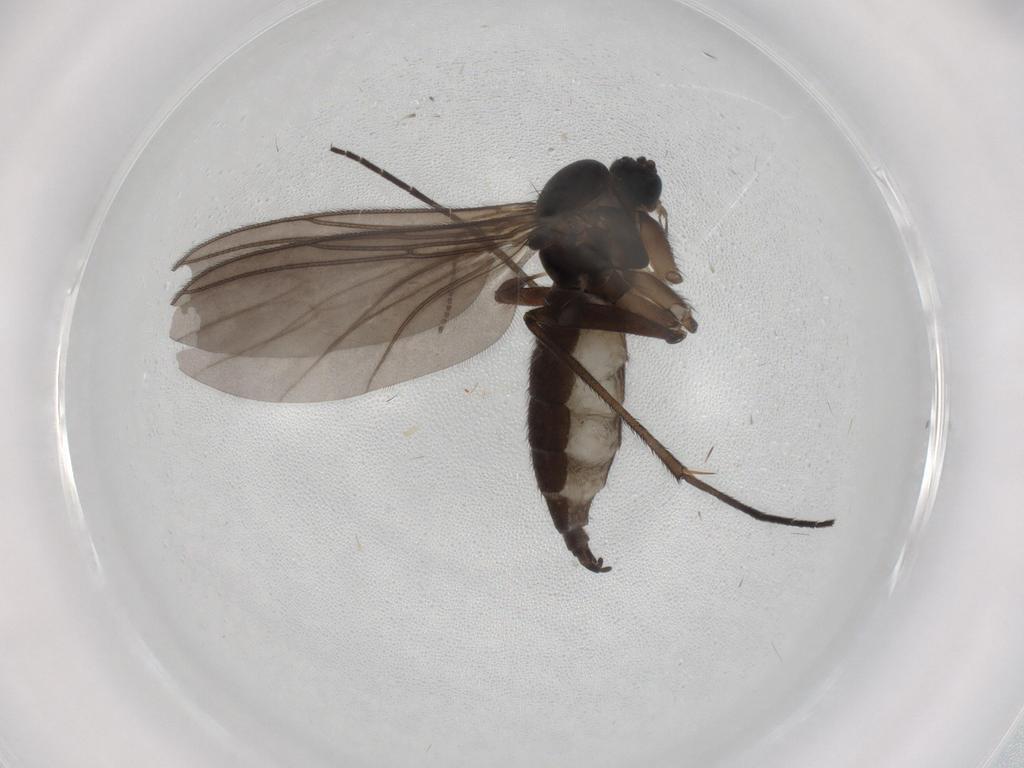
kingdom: Animalia
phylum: Arthropoda
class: Insecta
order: Diptera
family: Sciaridae
